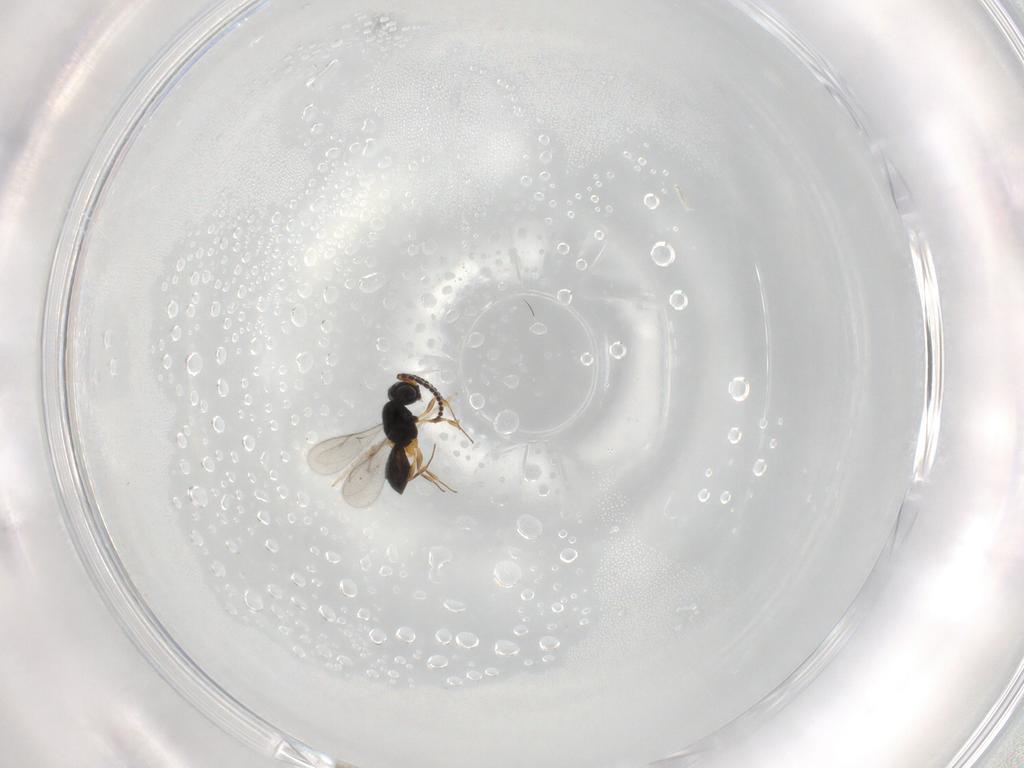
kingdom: Animalia
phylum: Arthropoda
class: Insecta
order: Hymenoptera
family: Scelionidae
